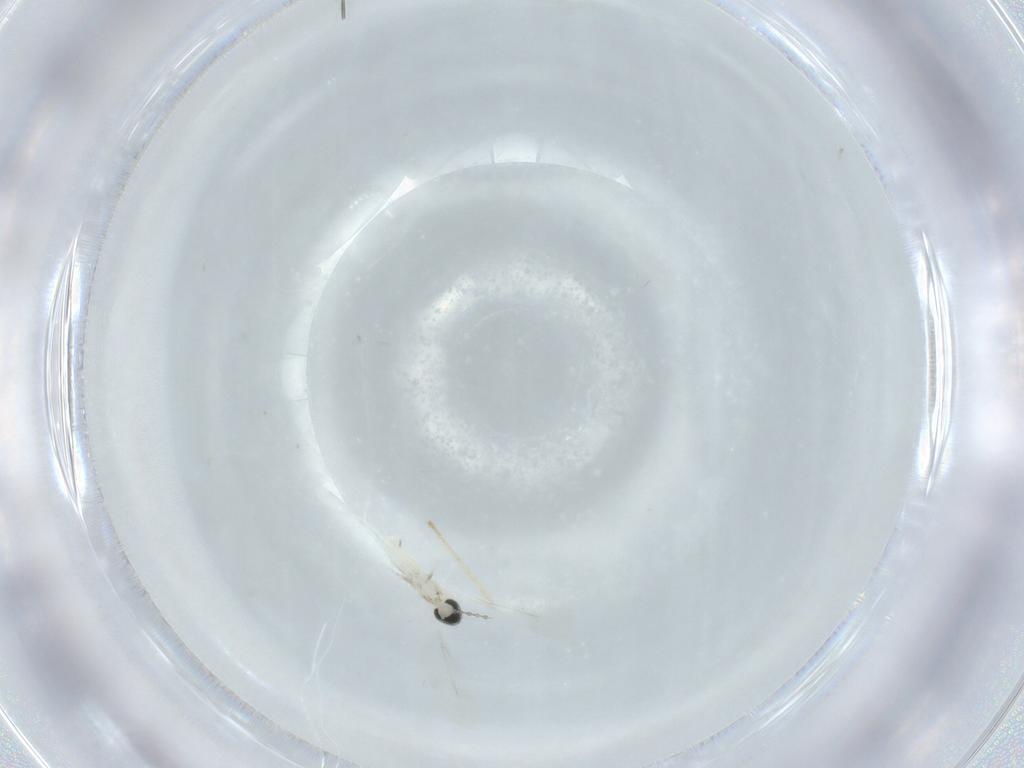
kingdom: Animalia
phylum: Arthropoda
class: Insecta
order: Diptera
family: Cecidomyiidae
